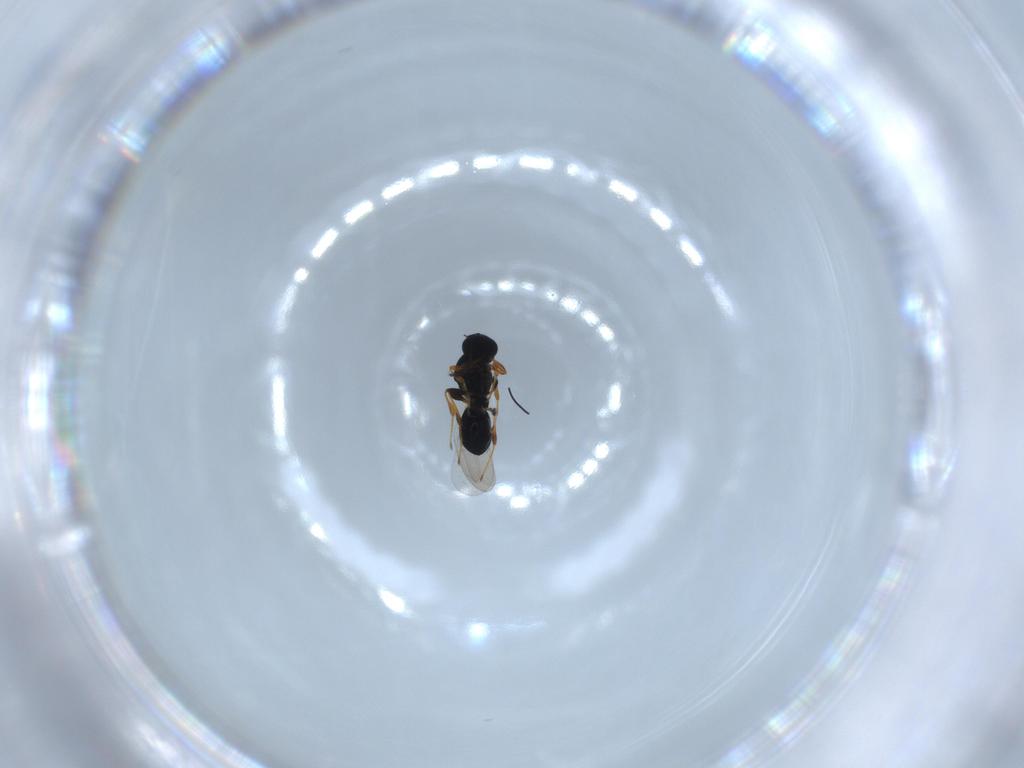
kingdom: Animalia
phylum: Arthropoda
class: Insecta
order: Hymenoptera
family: Platygastridae
